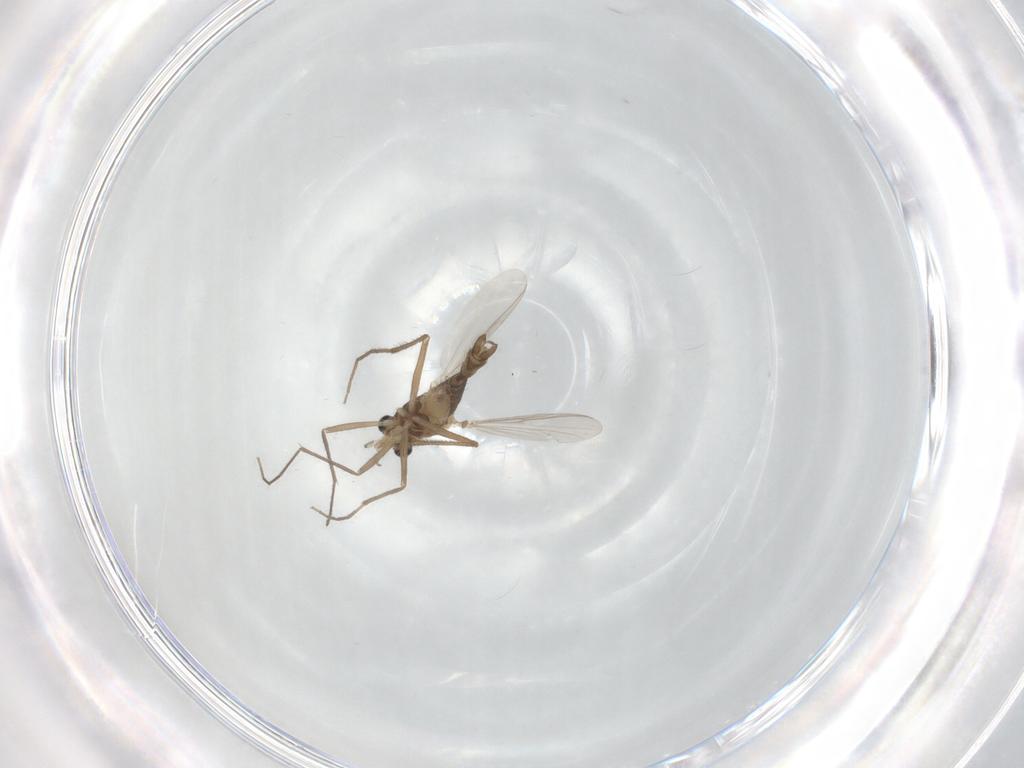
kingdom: Animalia
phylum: Arthropoda
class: Insecta
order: Diptera
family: Chironomidae
